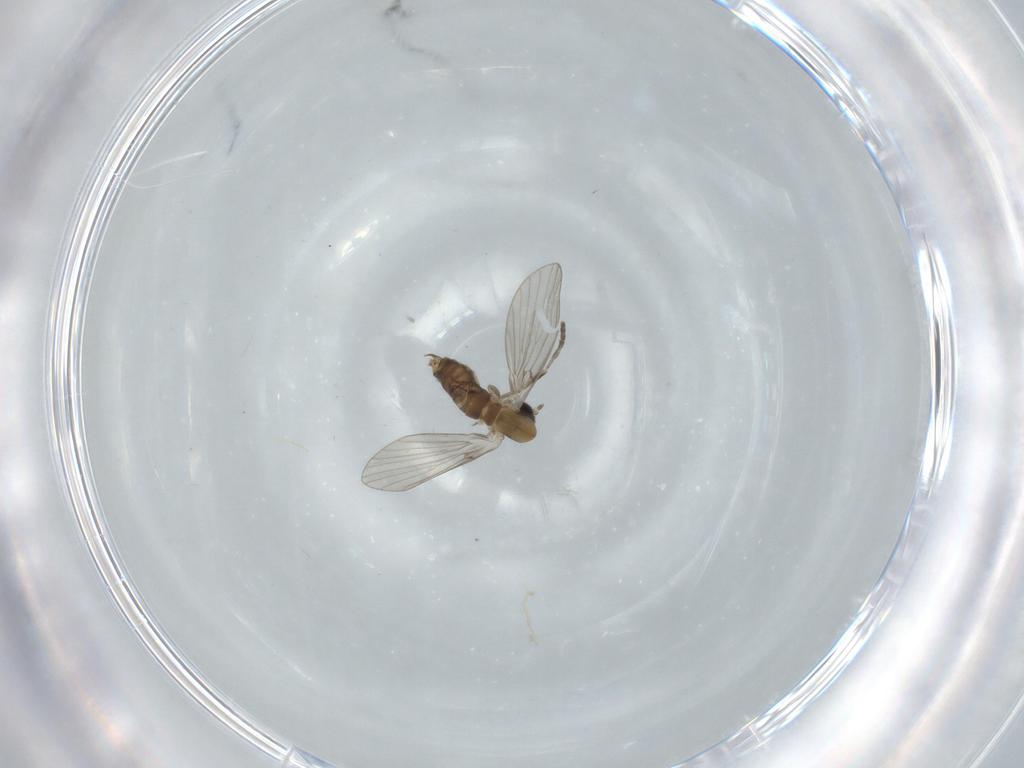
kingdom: Animalia
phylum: Arthropoda
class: Insecta
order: Diptera
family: Psychodidae
